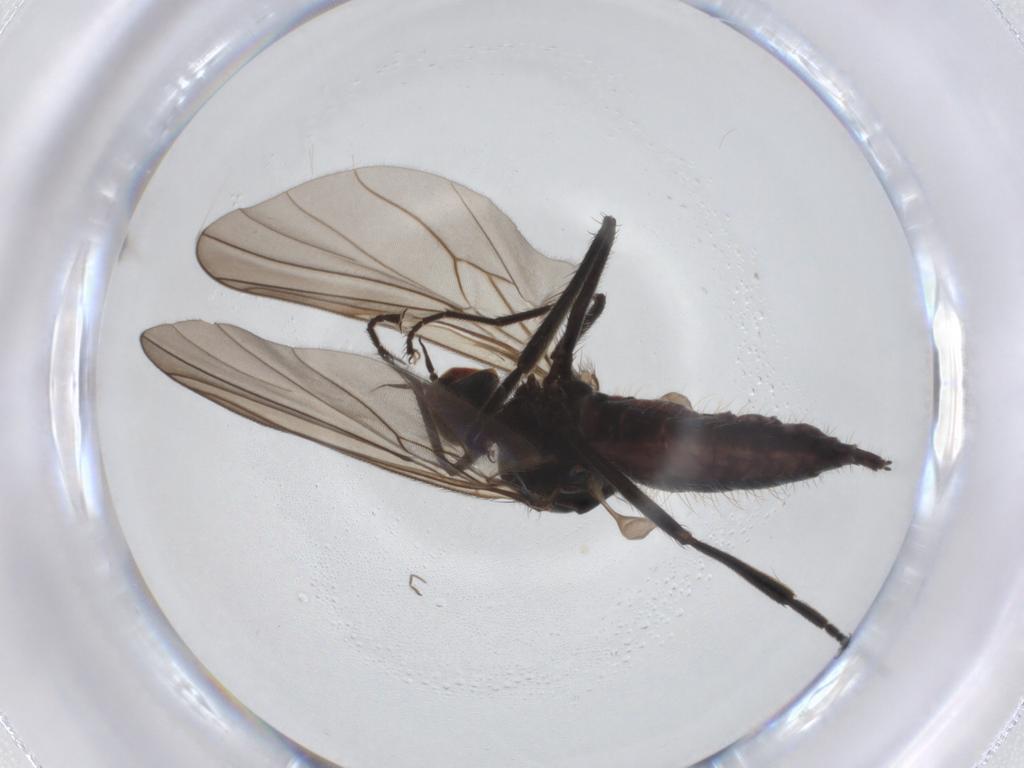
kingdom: Animalia
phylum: Arthropoda
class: Insecta
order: Diptera
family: Hybotidae
